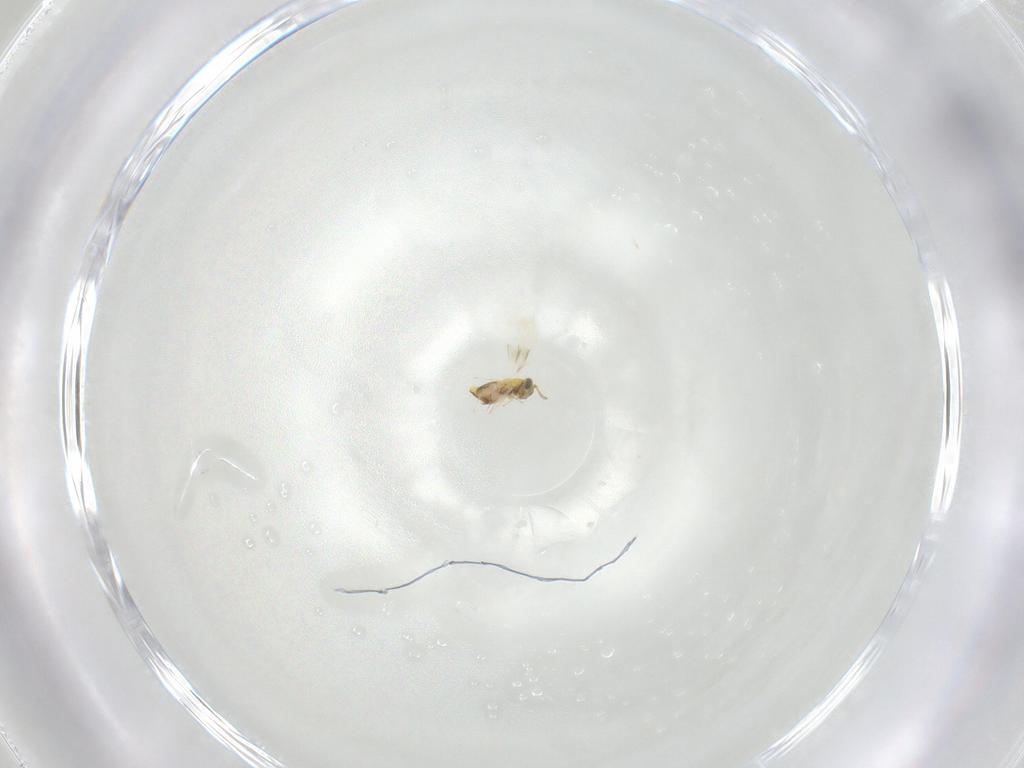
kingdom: Animalia
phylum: Arthropoda
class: Insecta
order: Hymenoptera
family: Aphelinidae
